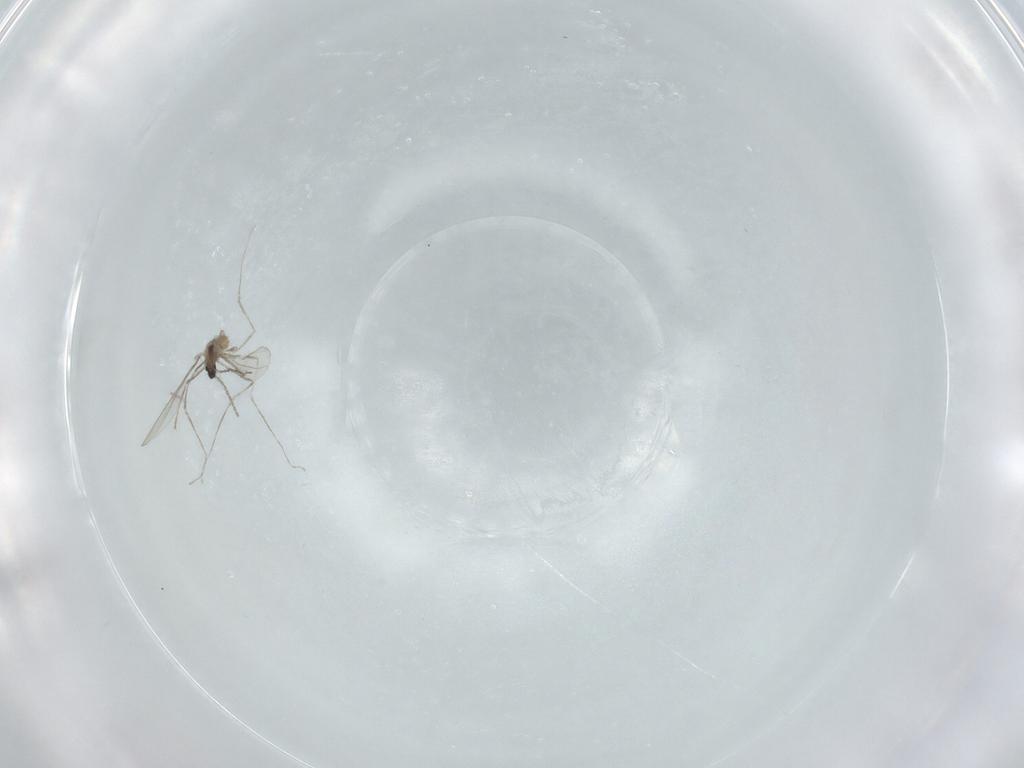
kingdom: Animalia
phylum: Arthropoda
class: Insecta
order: Diptera
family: Cecidomyiidae
